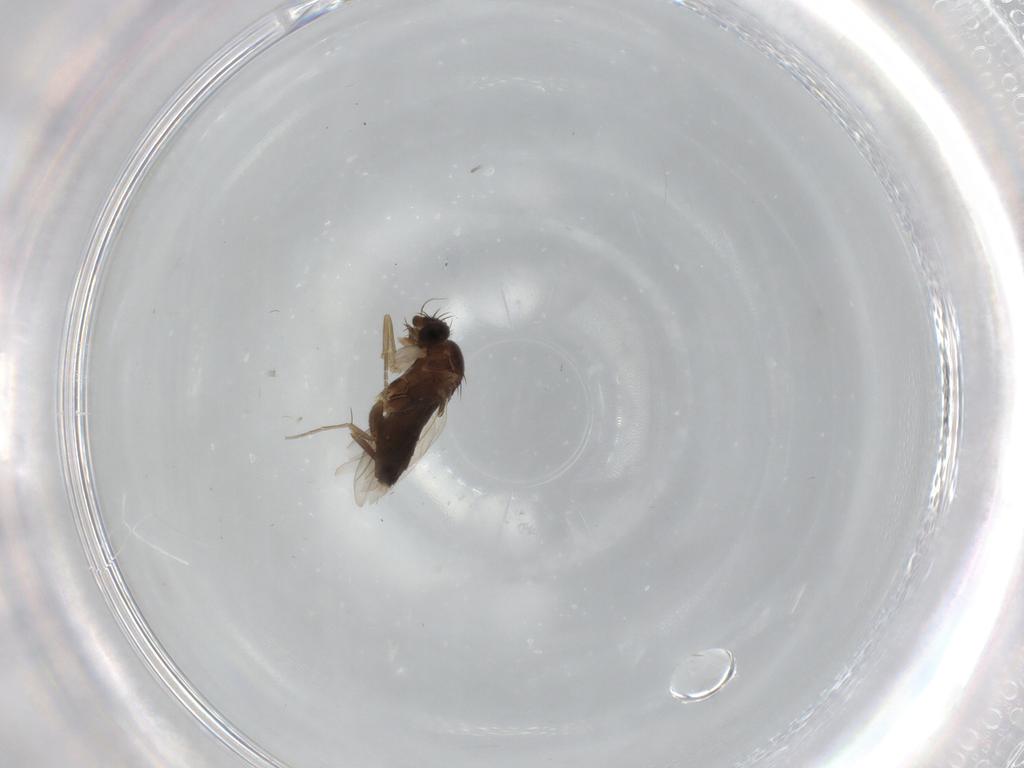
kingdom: Animalia
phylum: Arthropoda
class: Insecta
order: Diptera
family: Phoridae
